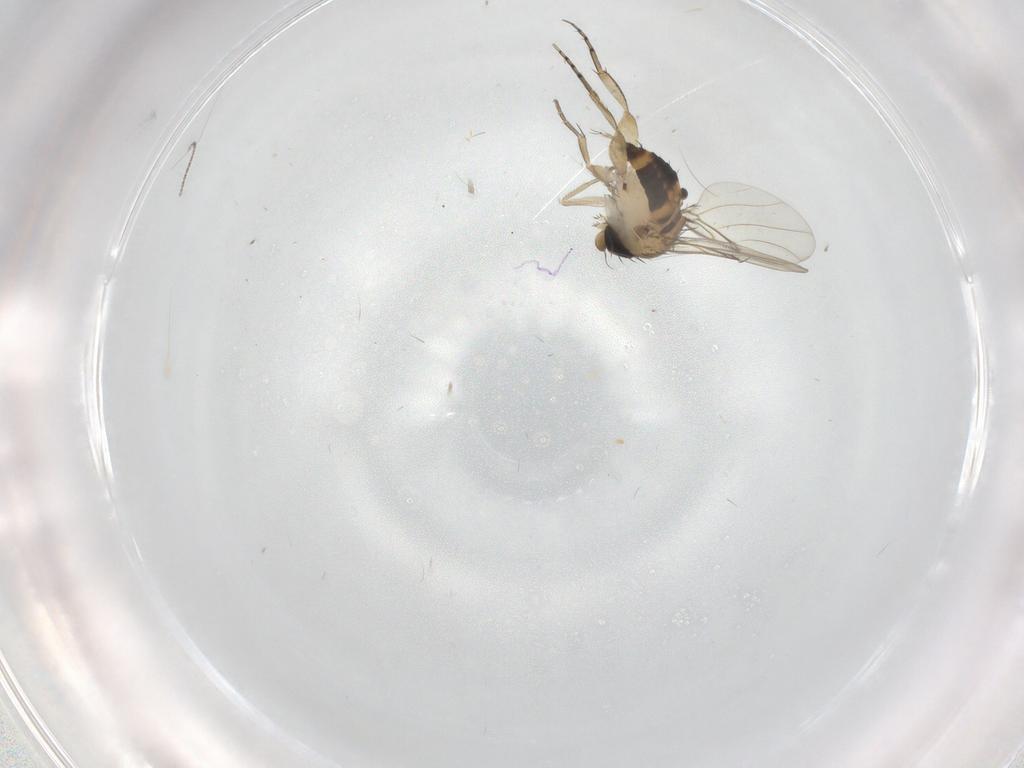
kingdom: Animalia
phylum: Arthropoda
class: Insecta
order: Diptera
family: Phoridae
